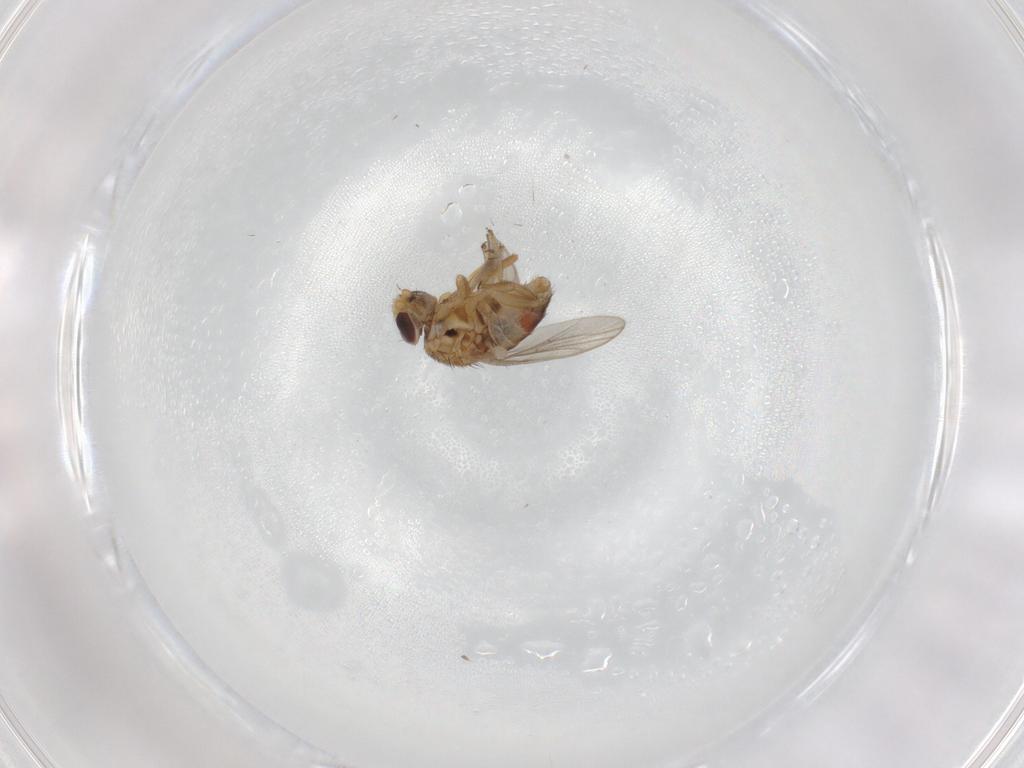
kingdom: Animalia
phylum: Arthropoda
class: Insecta
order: Diptera
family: Chloropidae
